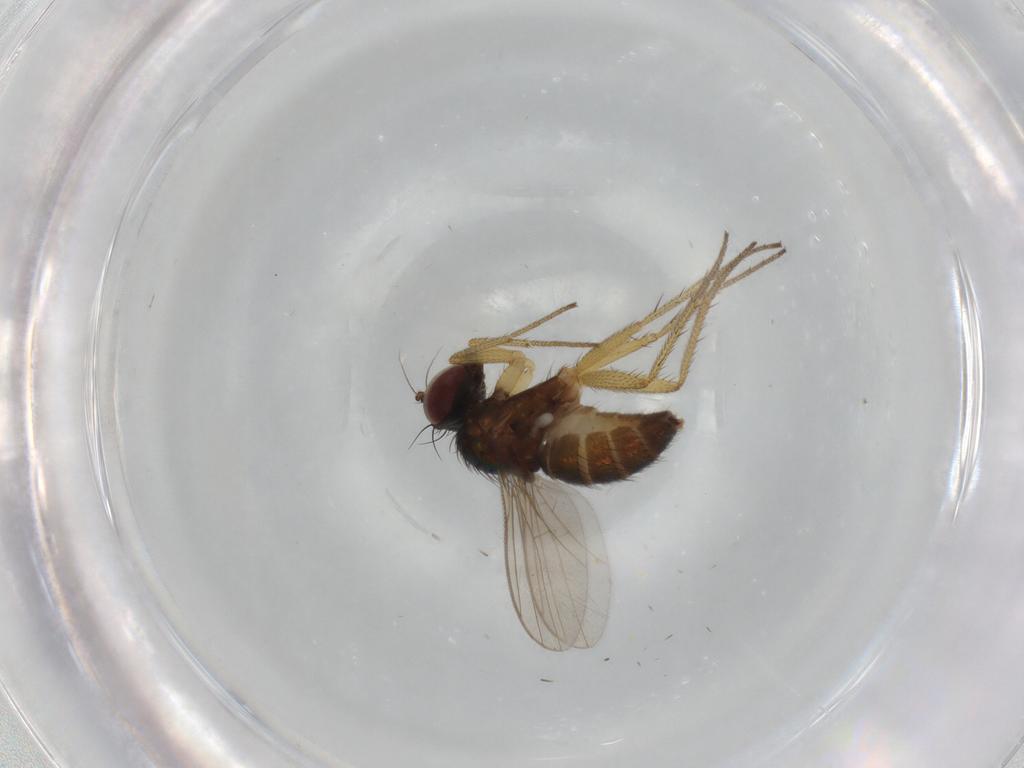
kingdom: Animalia
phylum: Arthropoda
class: Insecta
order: Diptera
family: Dolichopodidae
